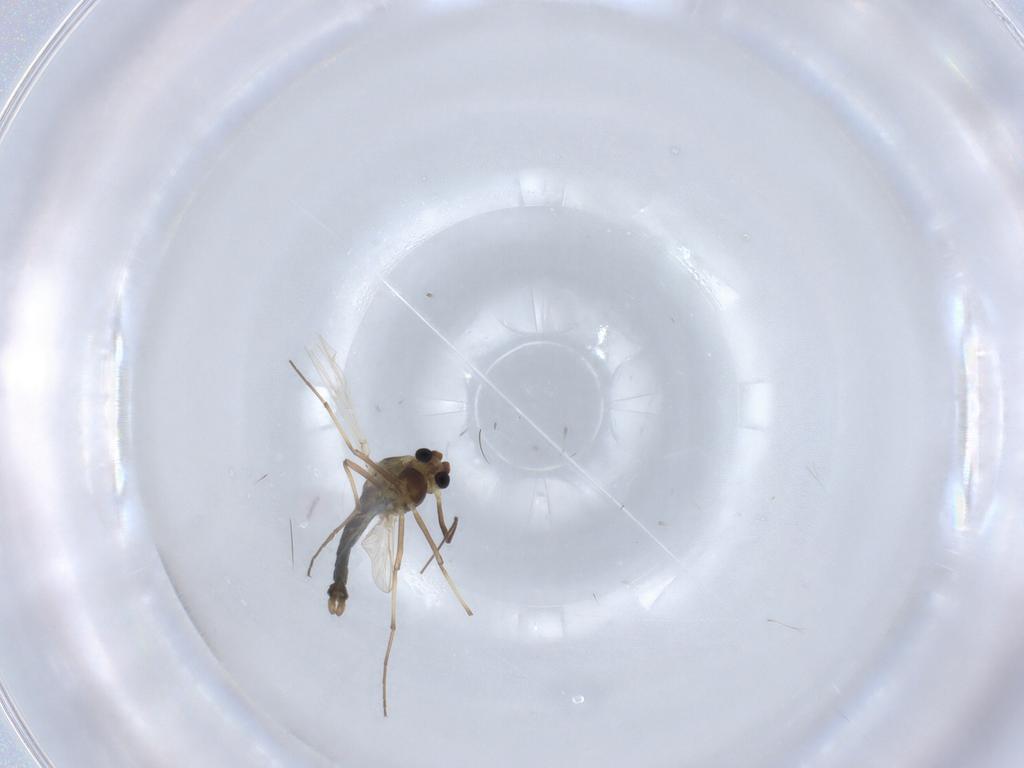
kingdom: Animalia
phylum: Arthropoda
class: Insecta
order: Diptera
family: Chironomidae
